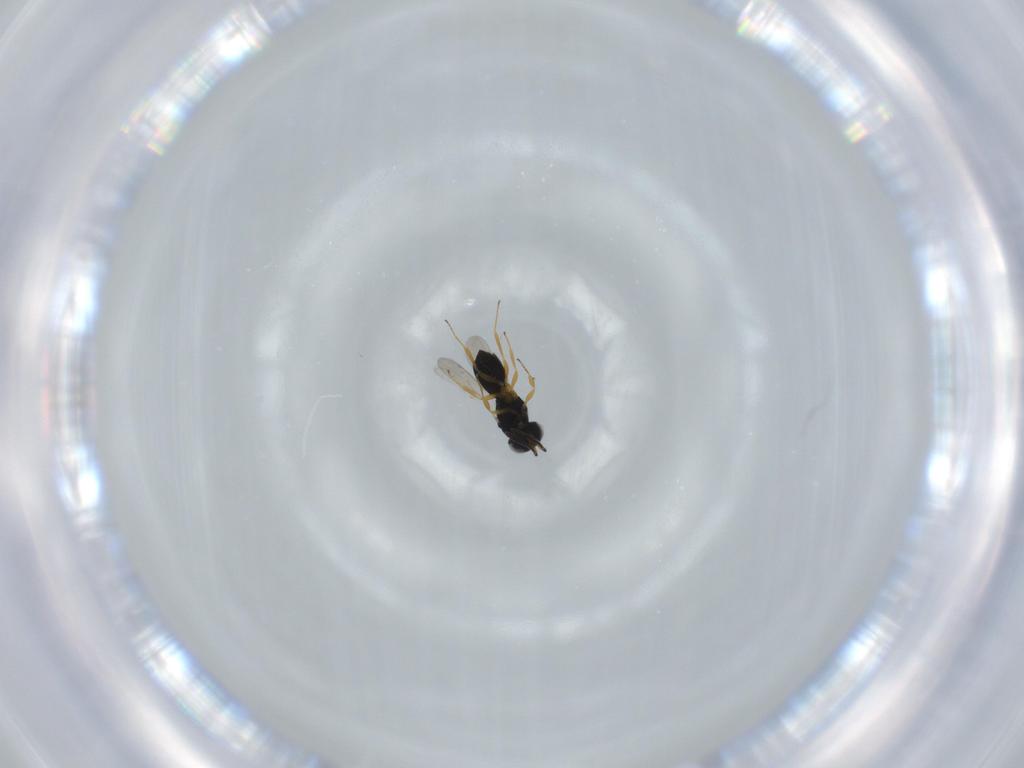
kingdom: Animalia
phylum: Arthropoda
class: Insecta
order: Hymenoptera
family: Scelionidae
